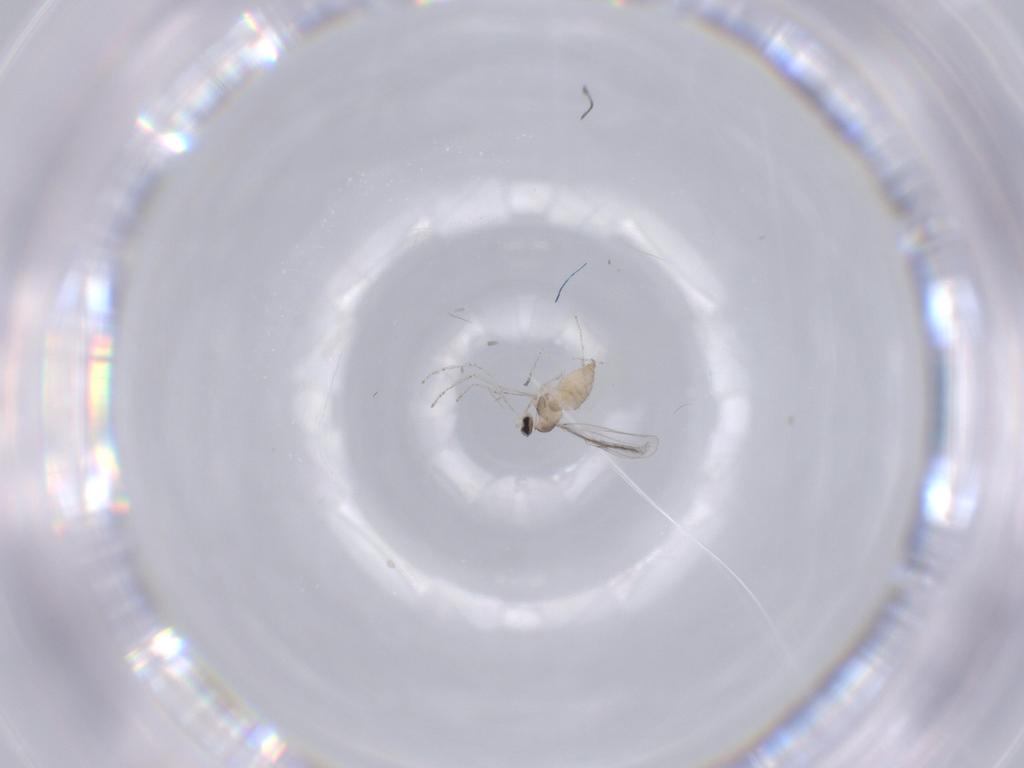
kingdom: Animalia
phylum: Arthropoda
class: Insecta
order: Diptera
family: Cecidomyiidae
